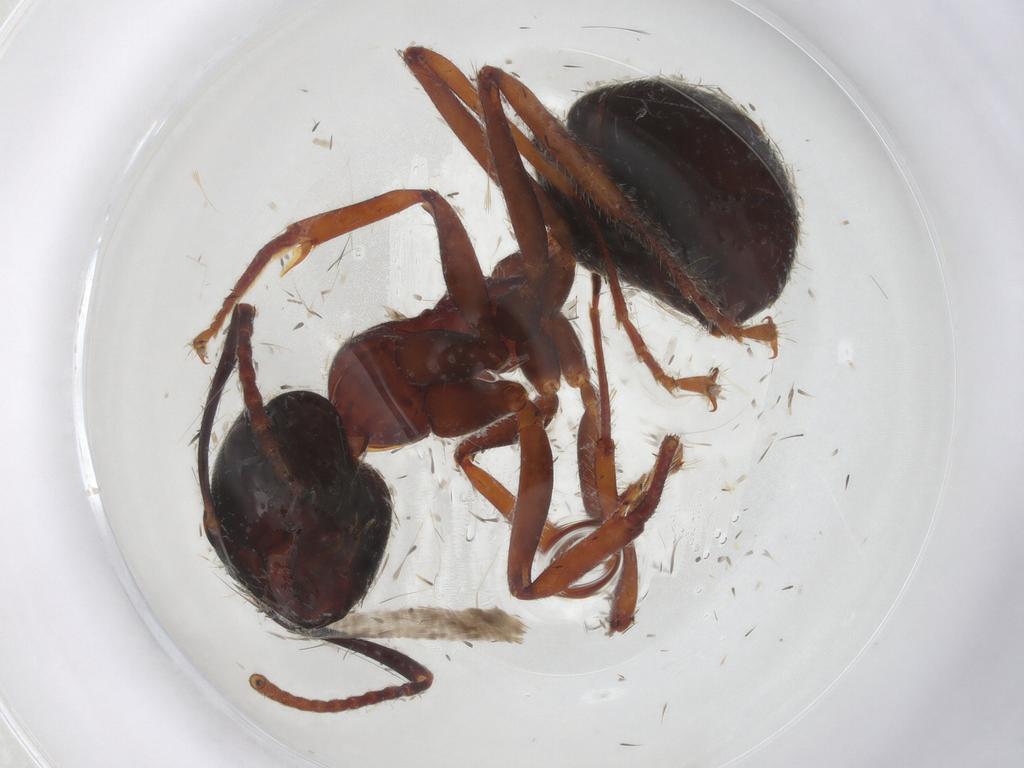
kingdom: Animalia
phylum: Arthropoda
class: Insecta
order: Hymenoptera
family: Formicidae
